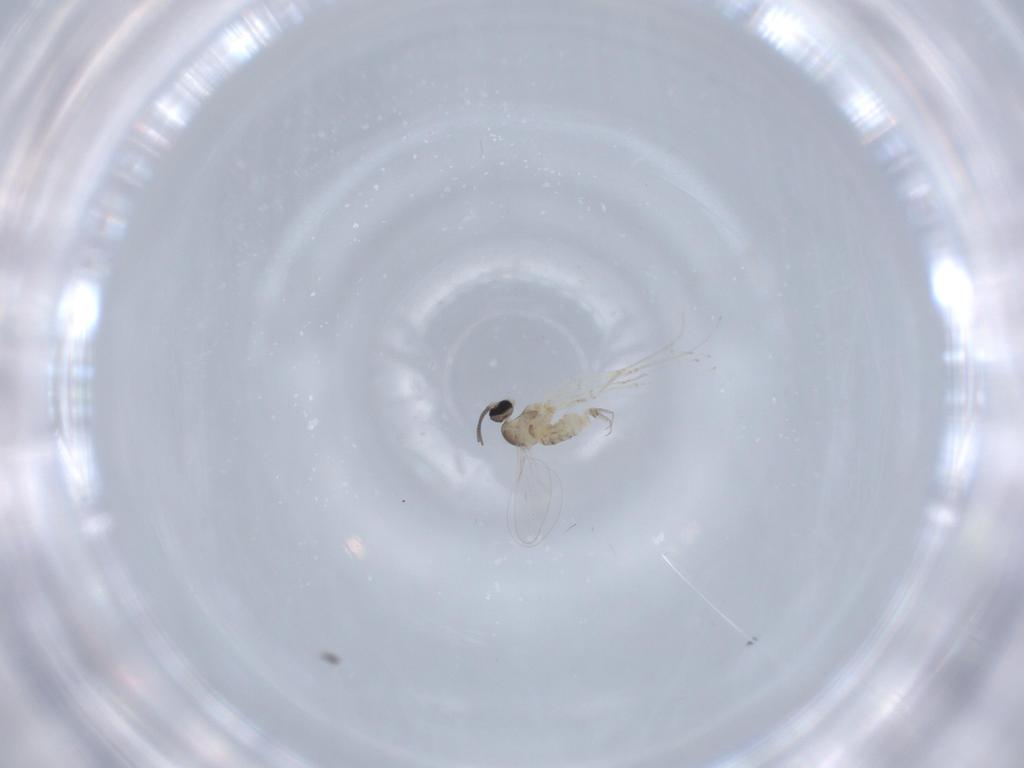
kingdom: Animalia
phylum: Arthropoda
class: Insecta
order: Diptera
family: Cecidomyiidae
